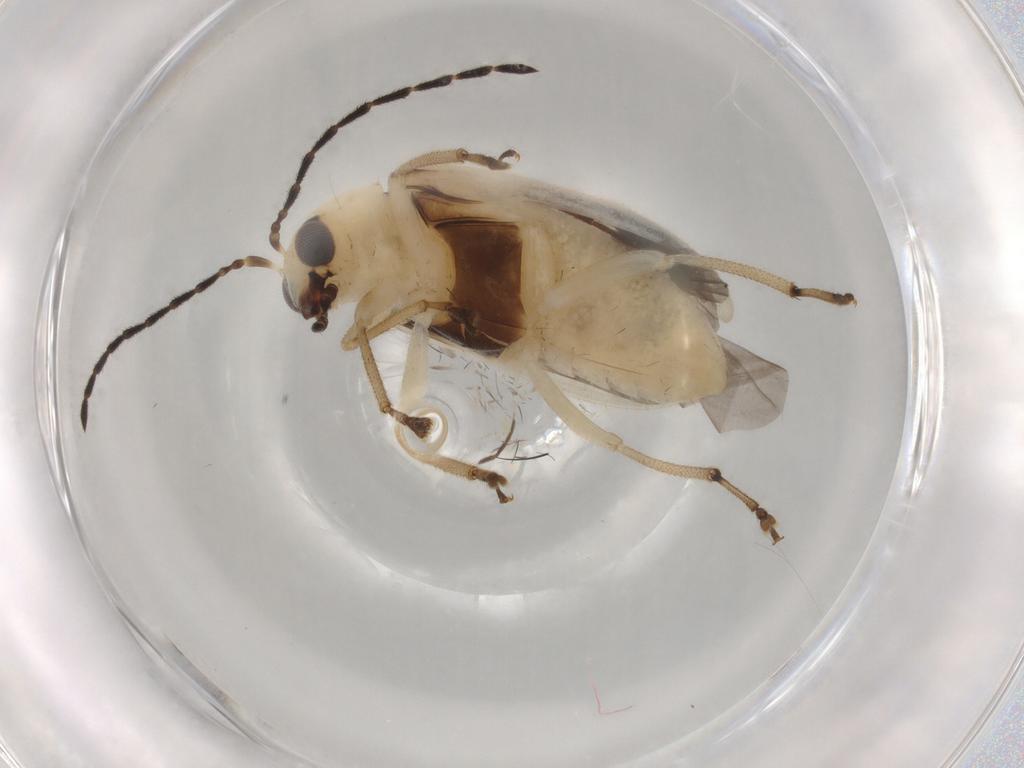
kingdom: Animalia
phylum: Arthropoda
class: Insecta
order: Coleoptera
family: Chrysomelidae
